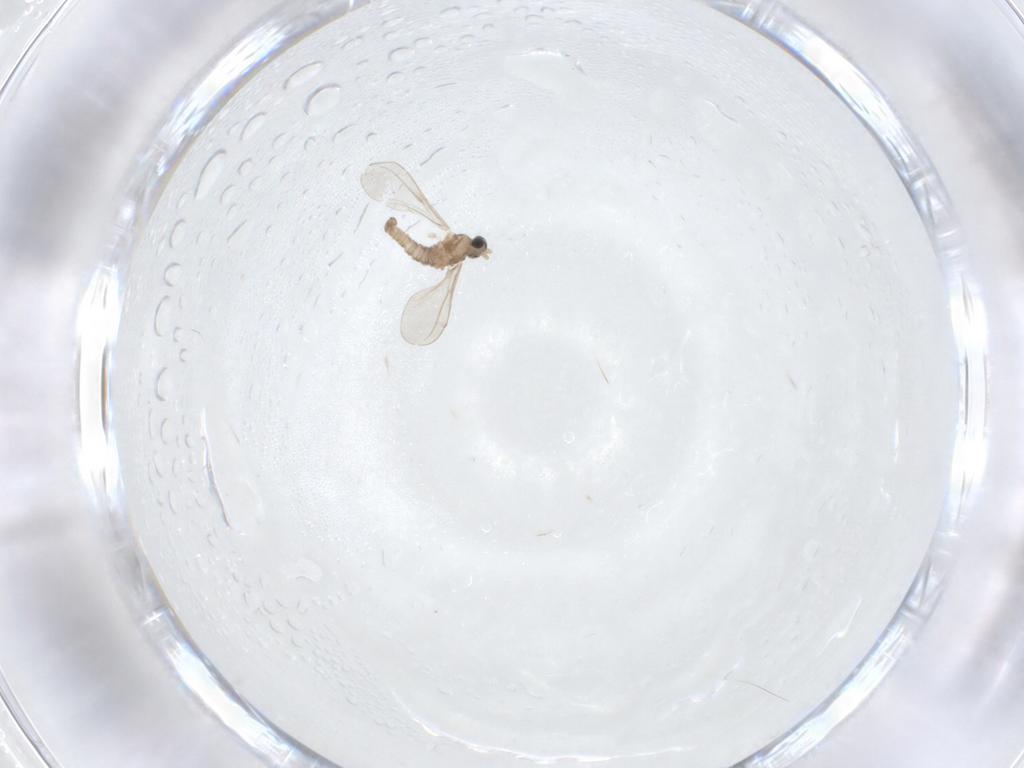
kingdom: Animalia
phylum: Arthropoda
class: Insecta
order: Diptera
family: Cecidomyiidae
